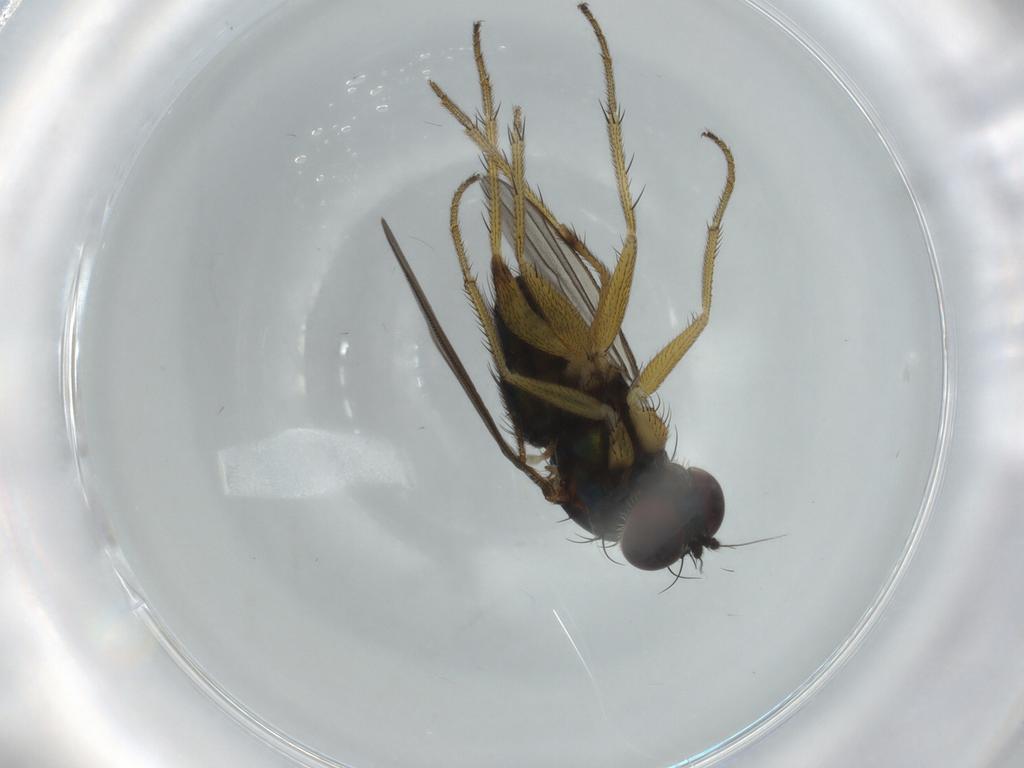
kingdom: Animalia
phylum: Arthropoda
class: Insecta
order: Diptera
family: Dolichopodidae
